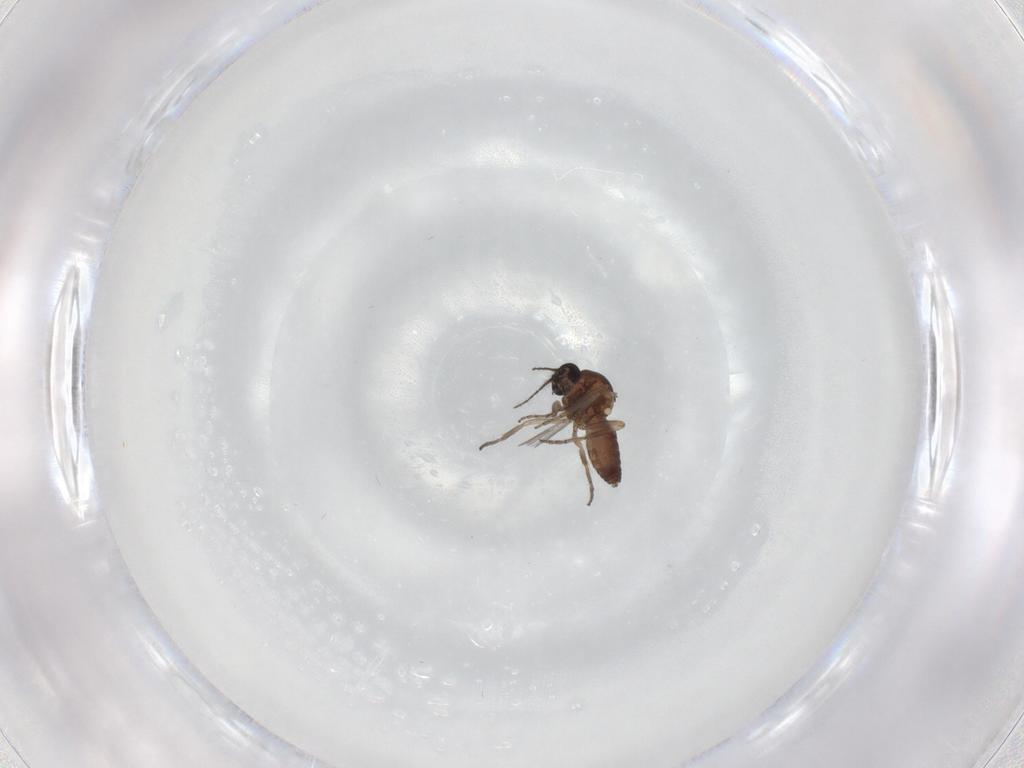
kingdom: Animalia
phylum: Arthropoda
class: Insecta
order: Diptera
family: Ceratopogonidae
